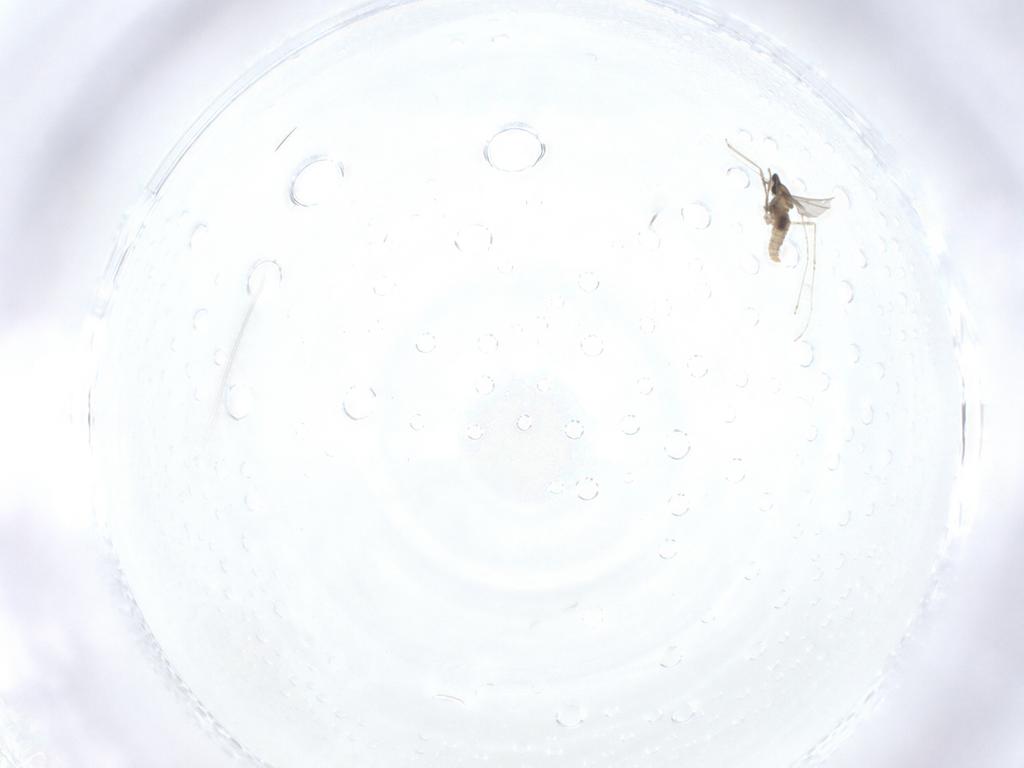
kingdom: Animalia
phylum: Arthropoda
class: Insecta
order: Diptera
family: Cecidomyiidae
